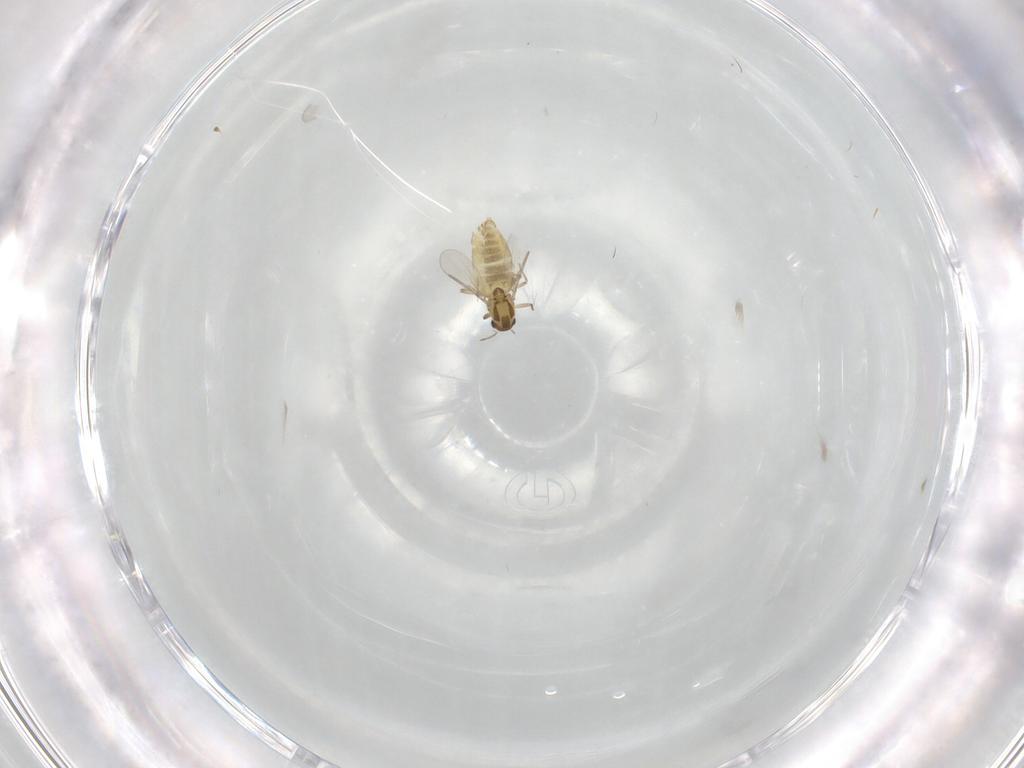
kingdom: Animalia
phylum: Arthropoda
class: Insecta
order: Diptera
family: Chironomidae
